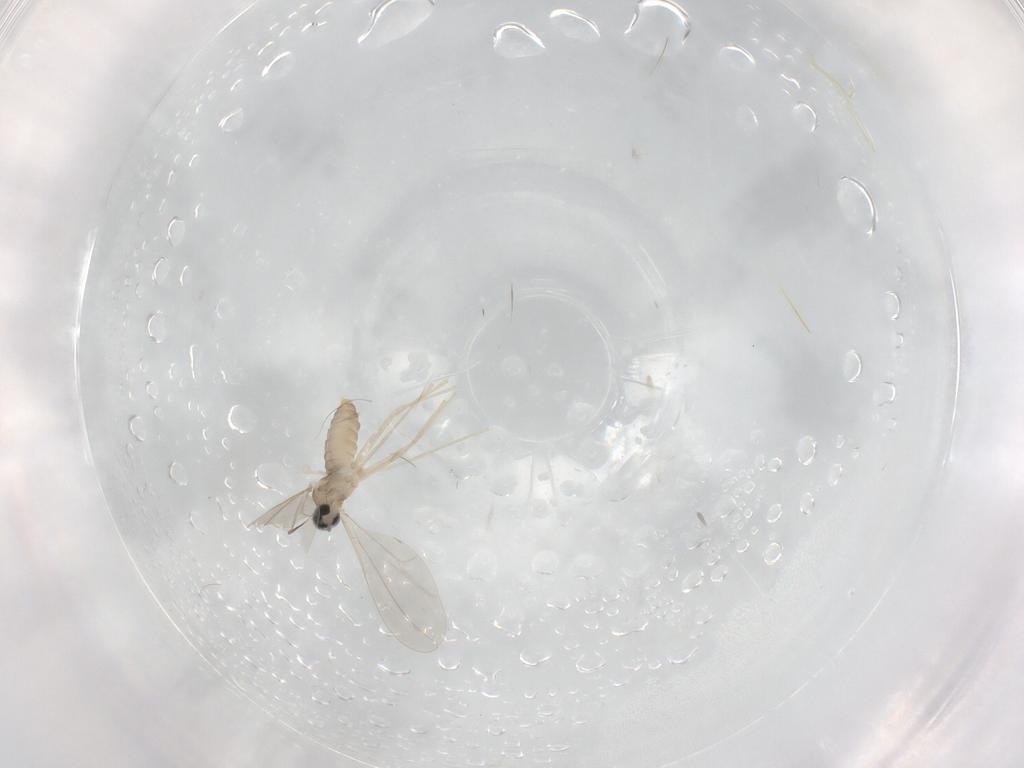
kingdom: Animalia
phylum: Arthropoda
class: Insecta
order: Diptera
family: Cecidomyiidae
